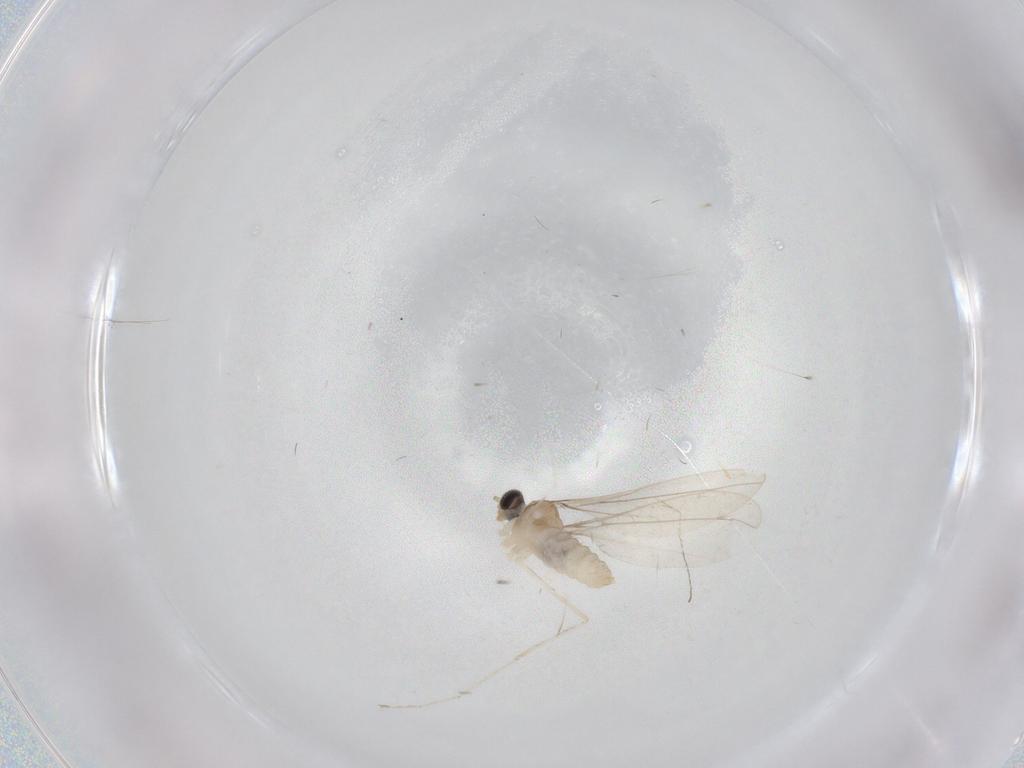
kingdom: Animalia
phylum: Arthropoda
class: Insecta
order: Diptera
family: Cecidomyiidae
